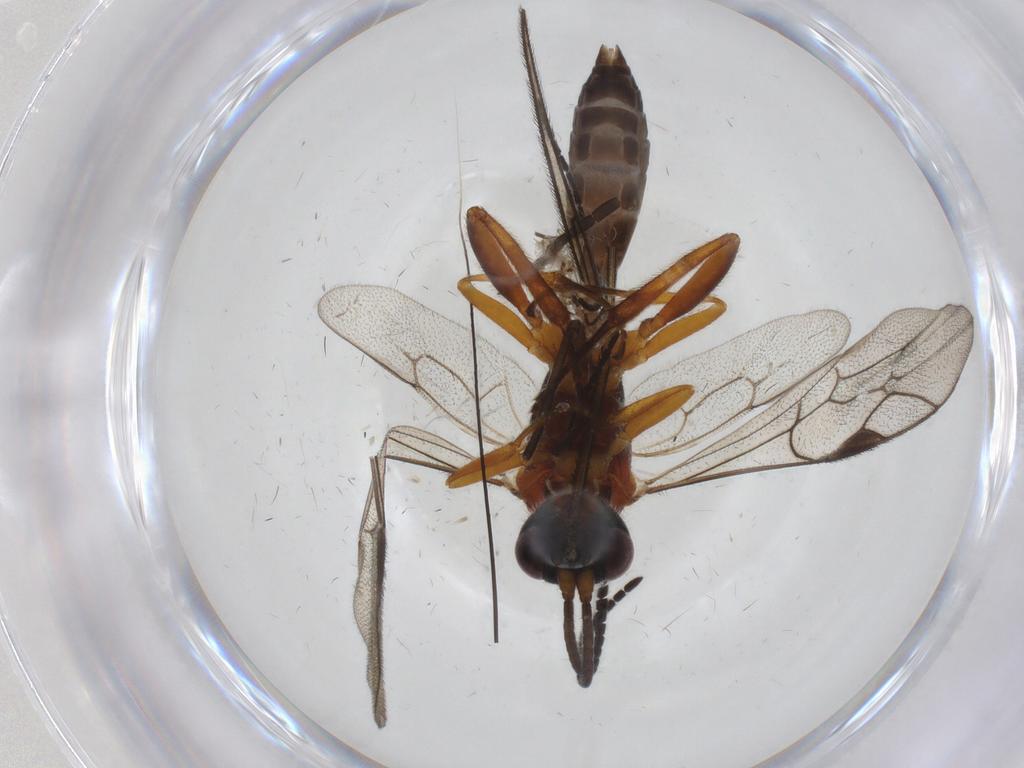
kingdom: Animalia
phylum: Arthropoda
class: Insecta
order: Hymenoptera
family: Ichneumonidae
